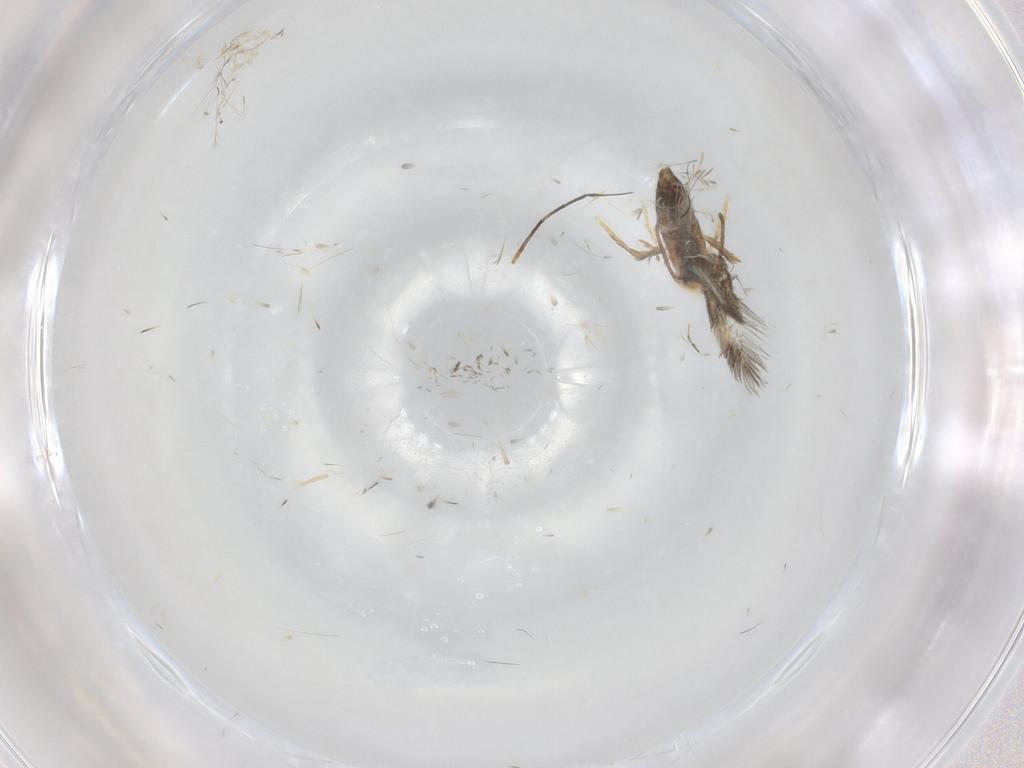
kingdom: Animalia
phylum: Arthropoda
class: Insecta
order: Lepidoptera
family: Nepticulidae
